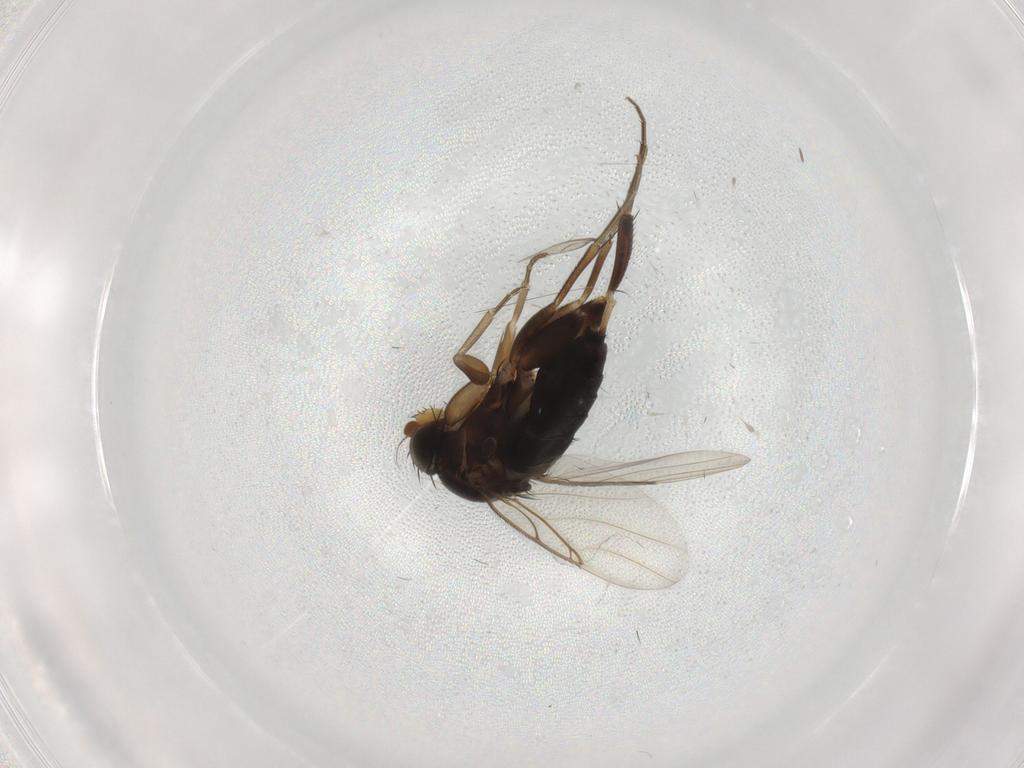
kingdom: Animalia
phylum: Arthropoda
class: Insecta
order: Diptera
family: Phoridae
